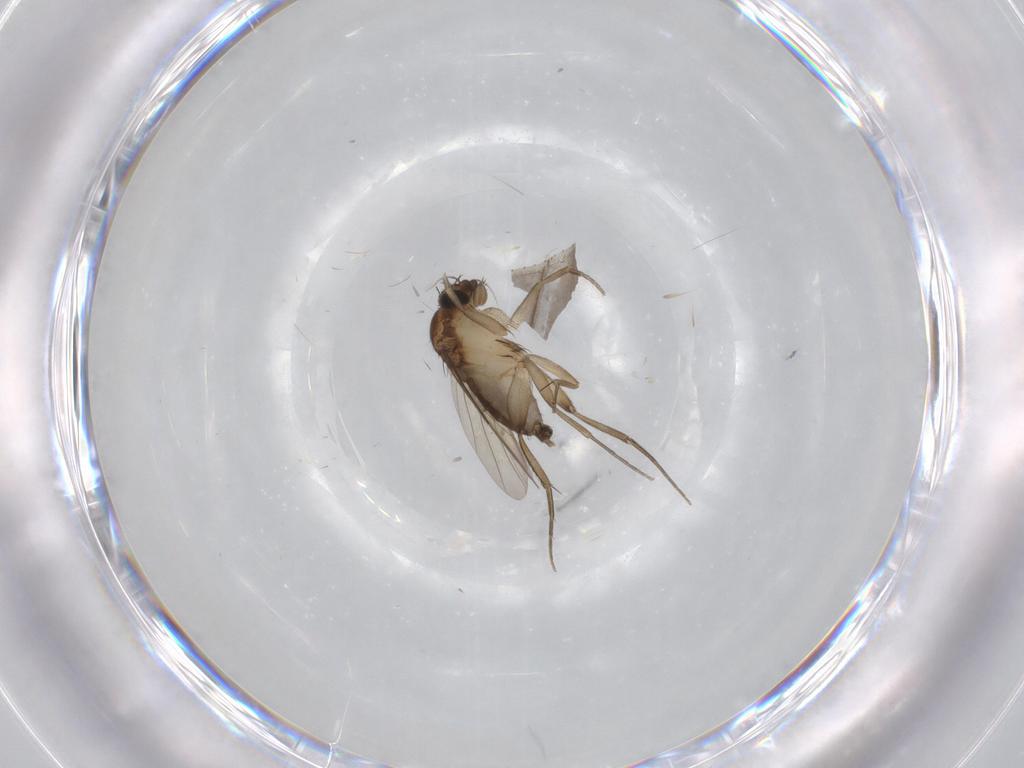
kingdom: Animalia
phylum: Arthropoda
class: Insecta
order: Diptera
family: Phoridae
